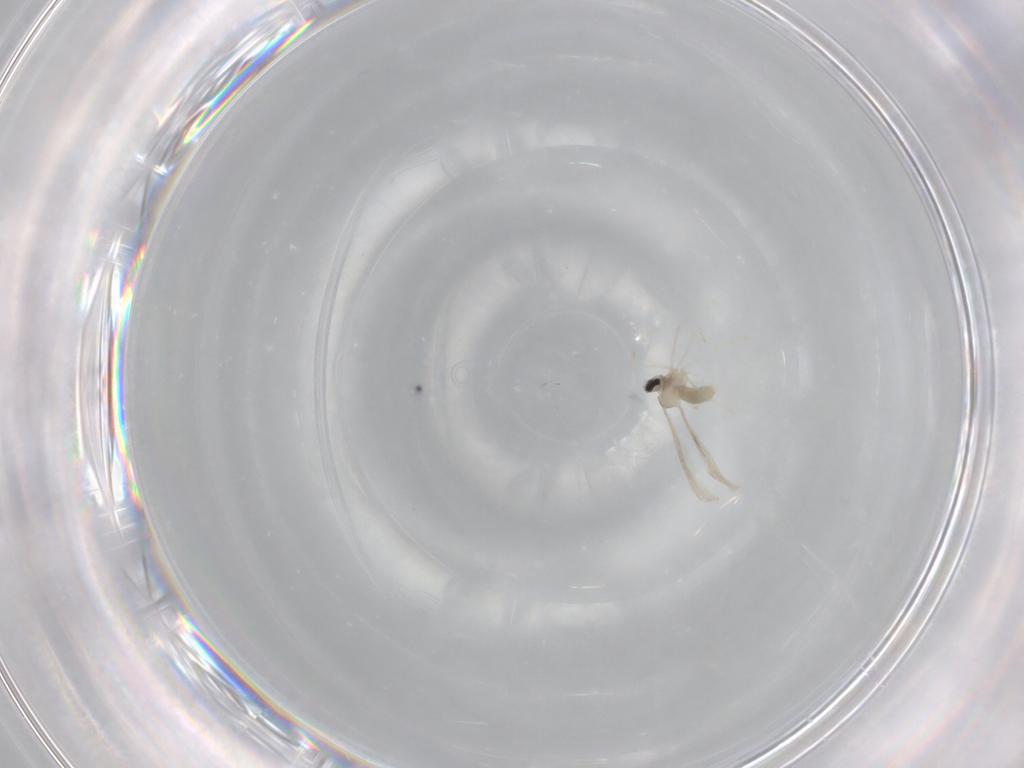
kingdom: Animalia
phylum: Arthropoda
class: Insecta
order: Diptera
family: Cecidomyiidae
